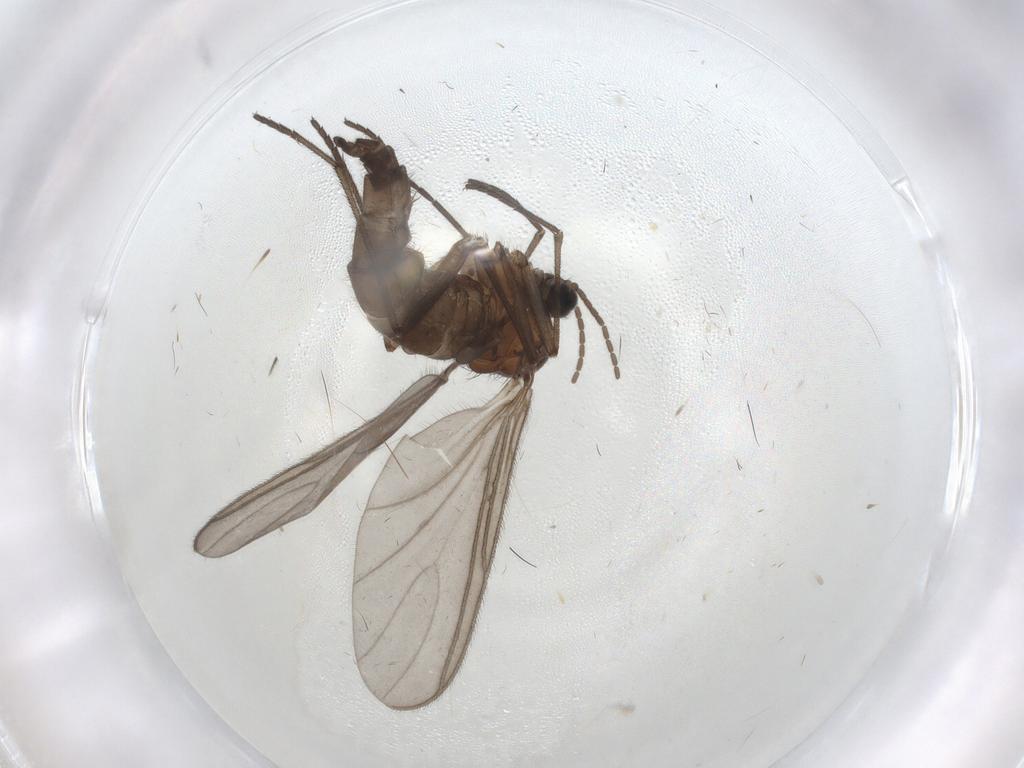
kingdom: Animalia
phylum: Arthropoda
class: Insecta
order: Diptera
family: Sciaridae
